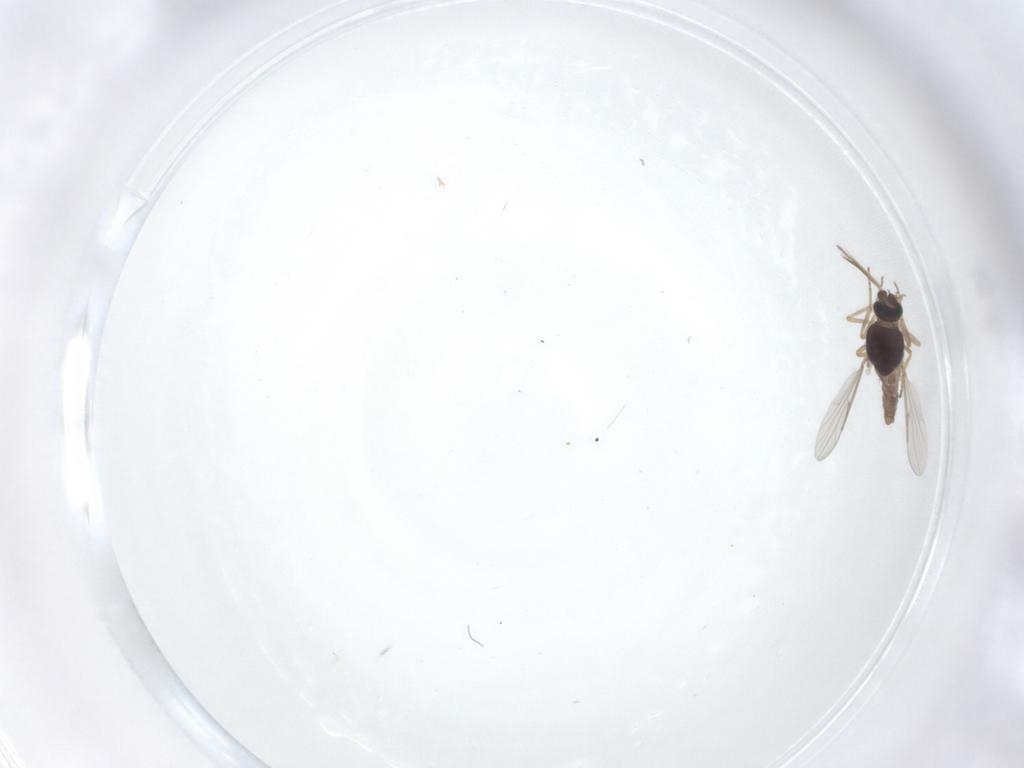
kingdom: Animalia
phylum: Arthropoda
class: Insecta
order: Diptera
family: Ceratopogonidae
